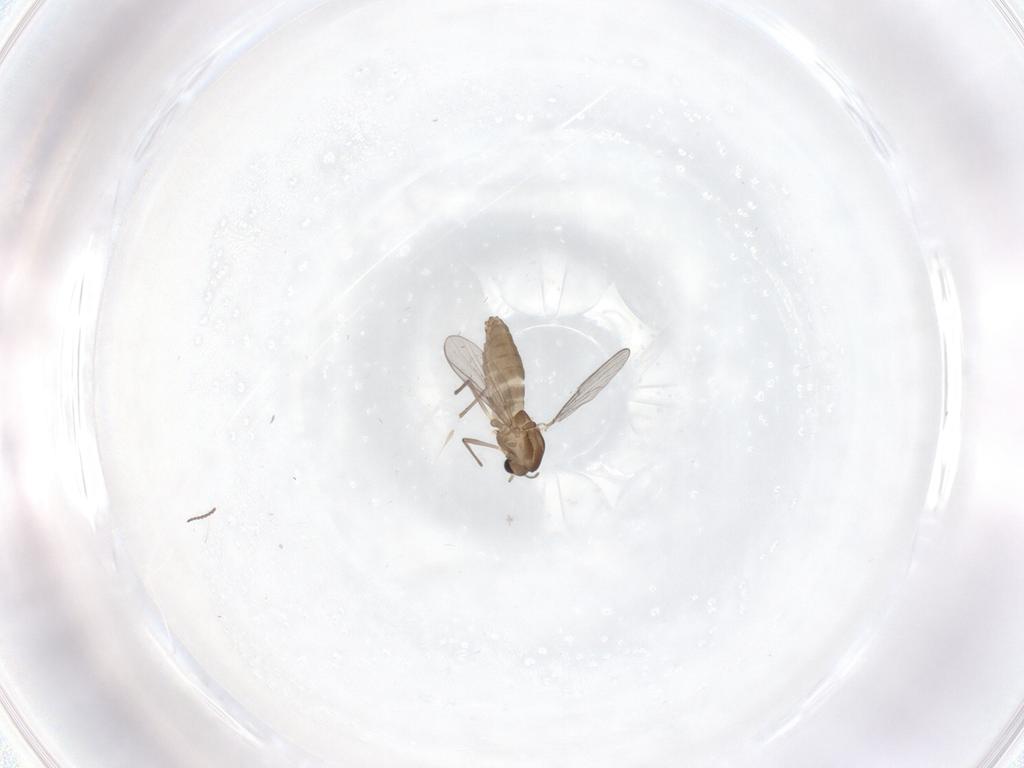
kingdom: Animalia
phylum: Arthropoda
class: Insecta
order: Diptera
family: Chironomidae
